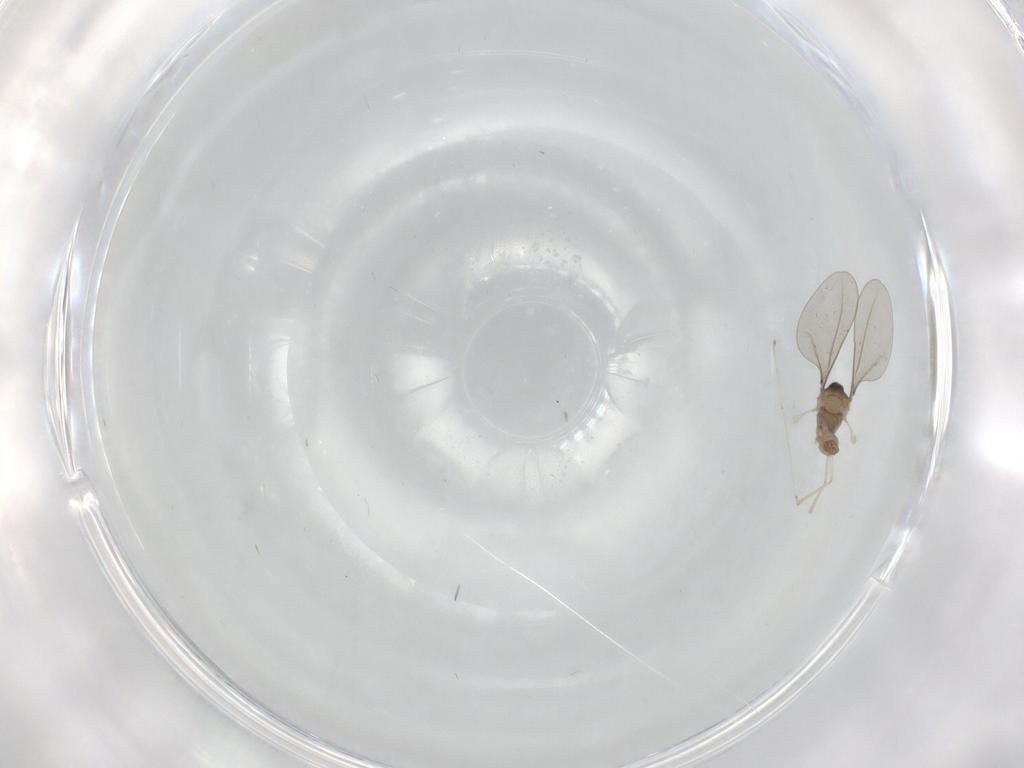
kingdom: Animalia
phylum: Arthropoda
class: Insecta
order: Diptera
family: Cecidomyiidae
